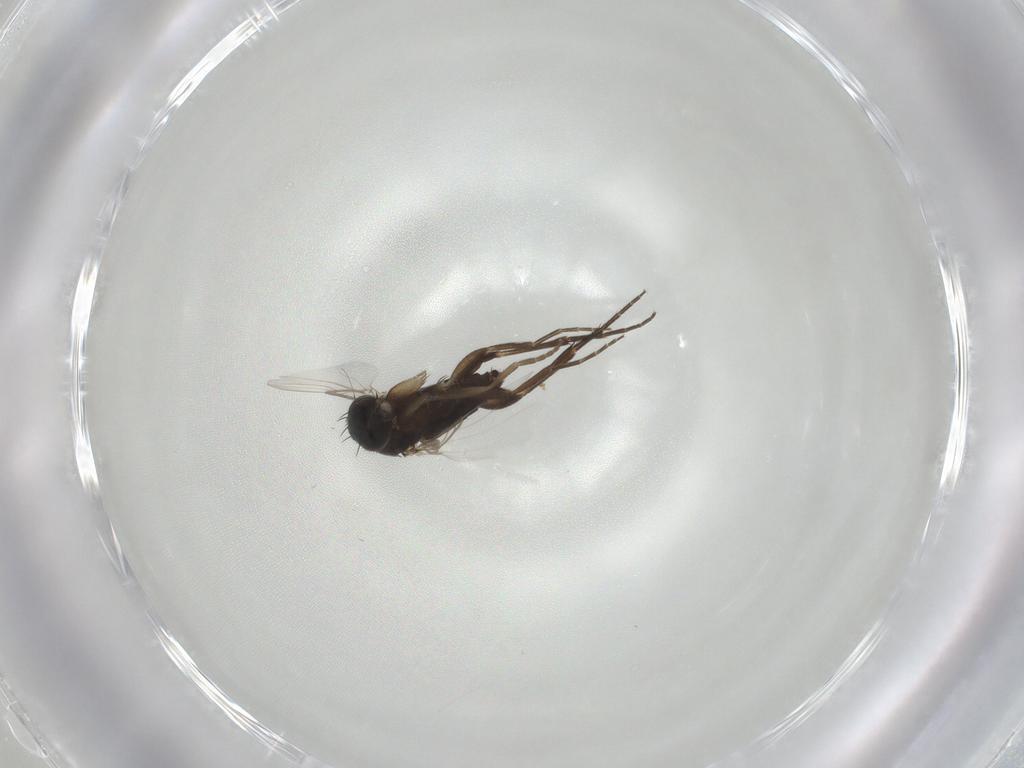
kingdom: Animalia
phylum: Arthropoda
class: Insecta
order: Diptera
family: Phoridae
